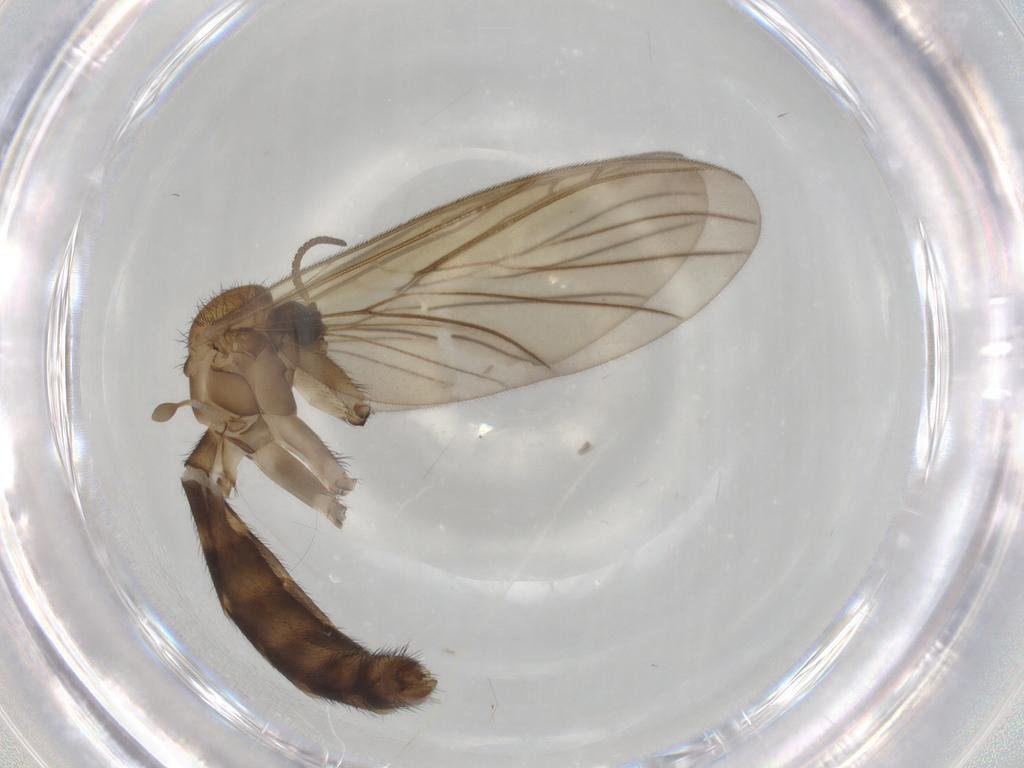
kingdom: Animalia
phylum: Arthropoda
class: Insecta
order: Diptera
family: Keroplatidae
